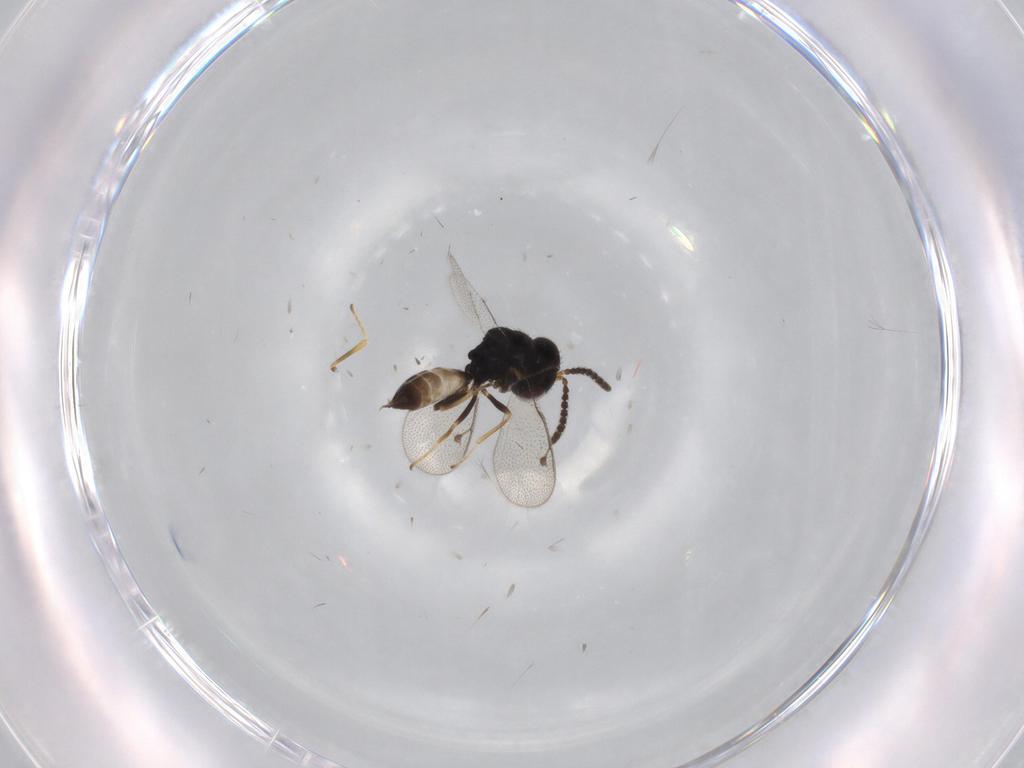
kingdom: Animalia
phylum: Arthropoda
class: Insecta
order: Hymenoptera
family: Agaonidae
